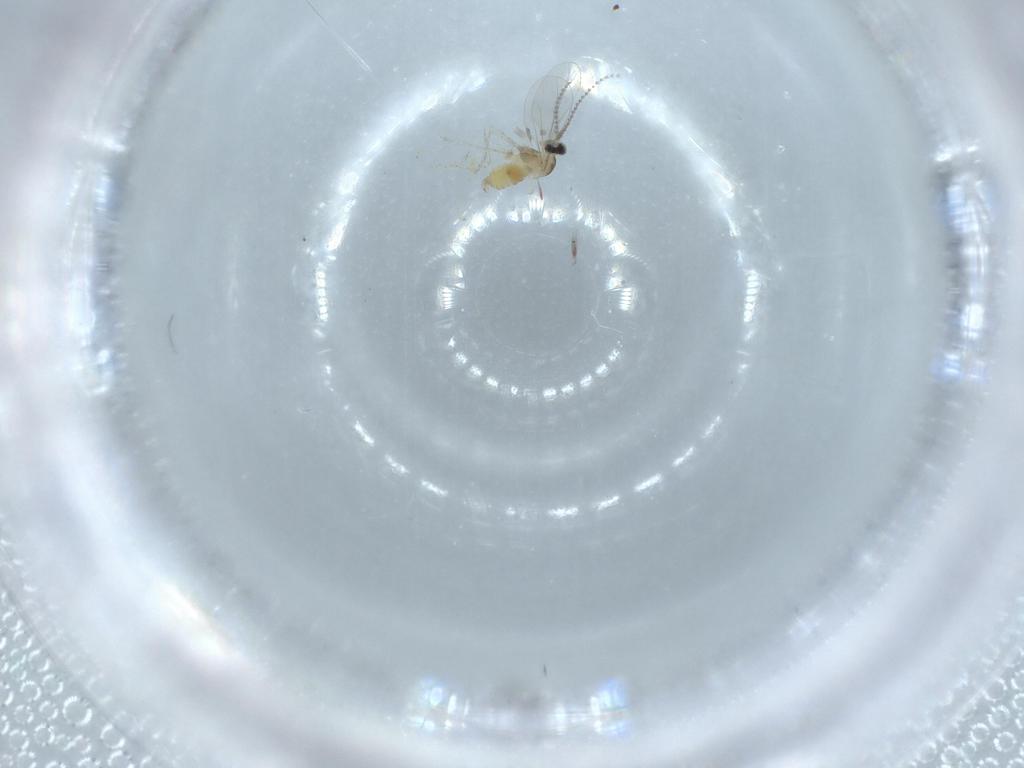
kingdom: Animalia
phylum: Arthropoda
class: Insecta
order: Diptera
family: Cecidomyiidae
